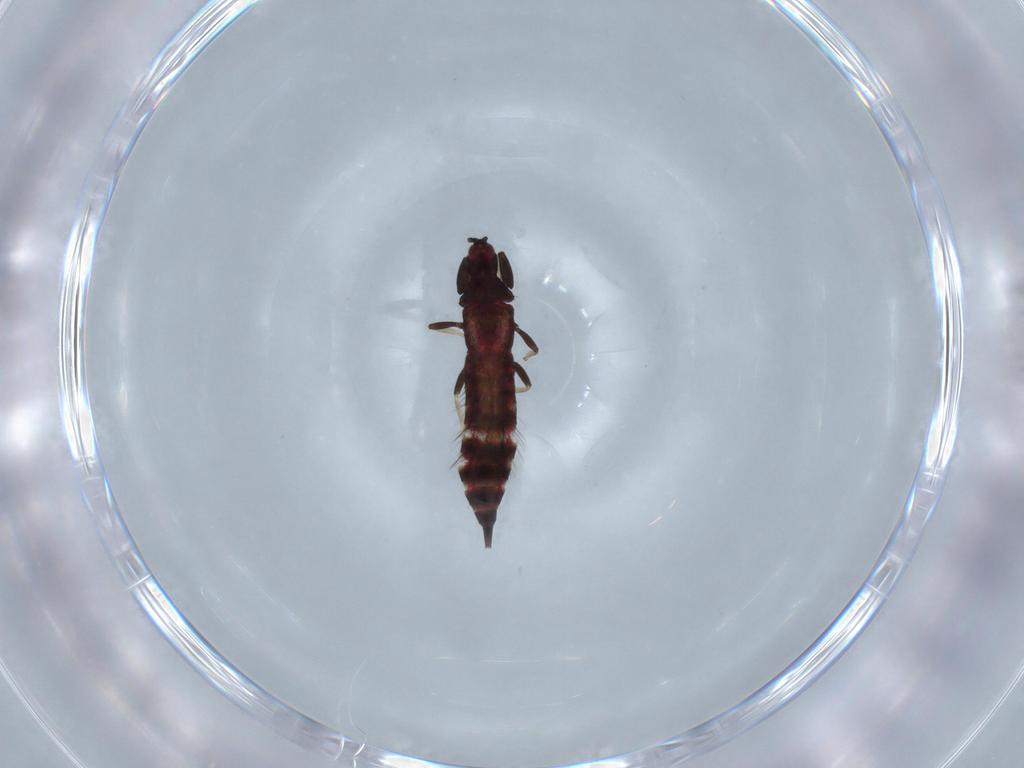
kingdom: Animalia
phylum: Arthropoda
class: Insecta
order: Thysanoptera
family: Phlaeothripidae
